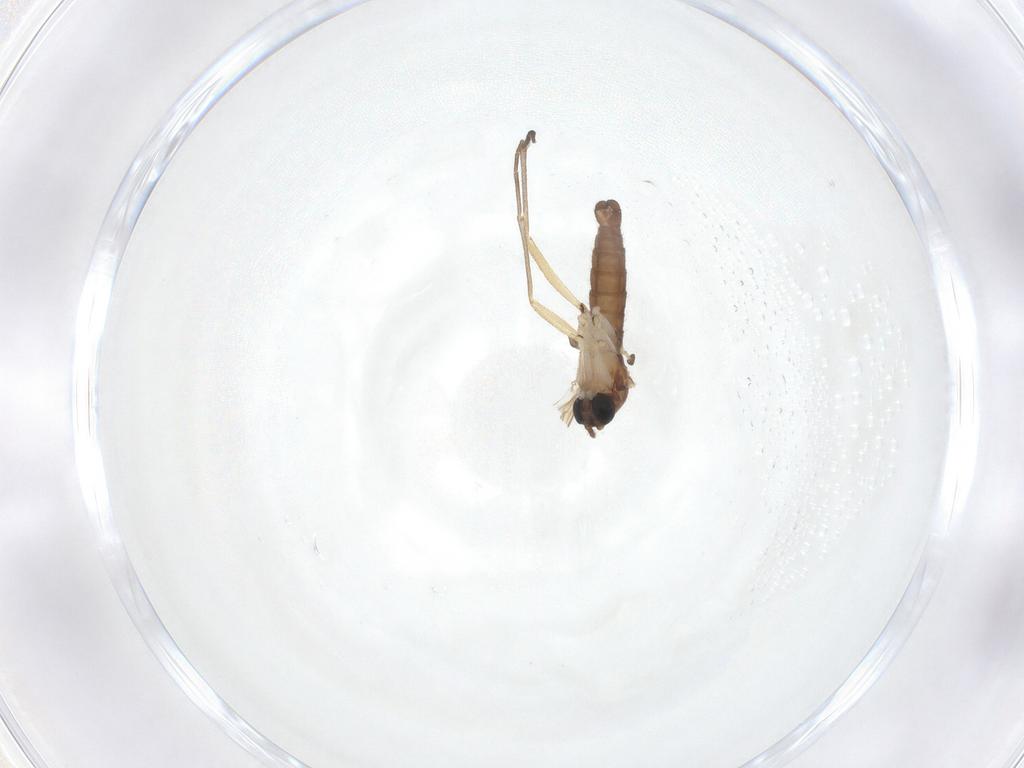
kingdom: Animalia
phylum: Arthropoda
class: Insecta
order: Diptera
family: Sciaridae
